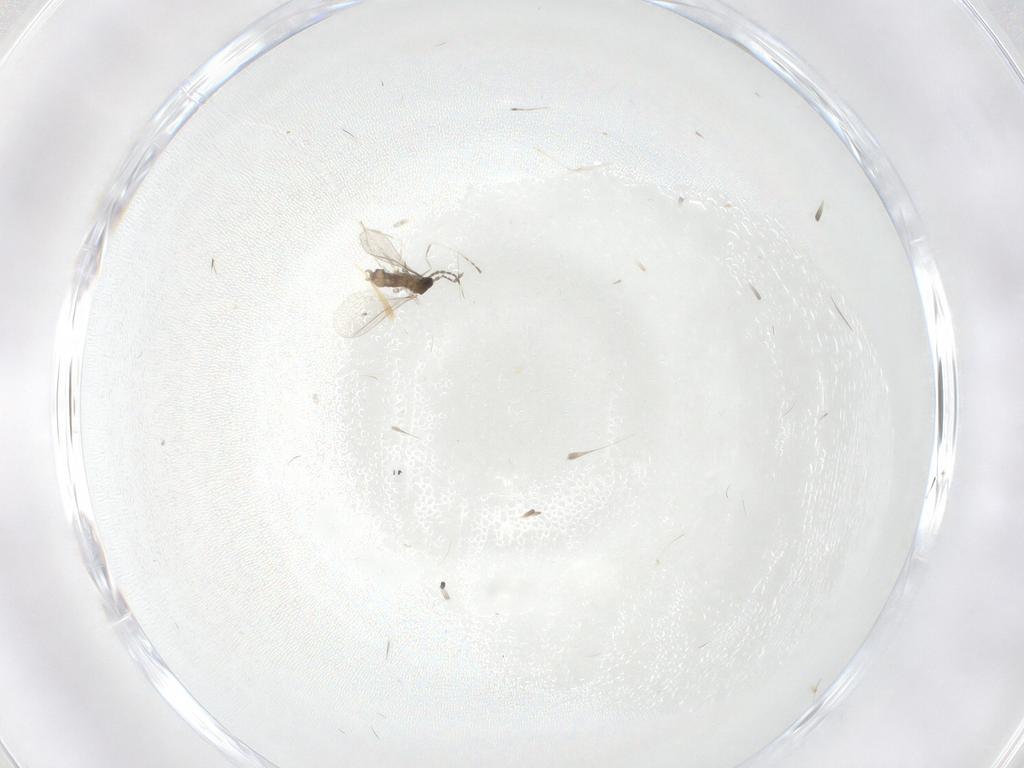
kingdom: Animalia
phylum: Arthropoda
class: Insecta
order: Diptera
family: Cecidomyiidae
